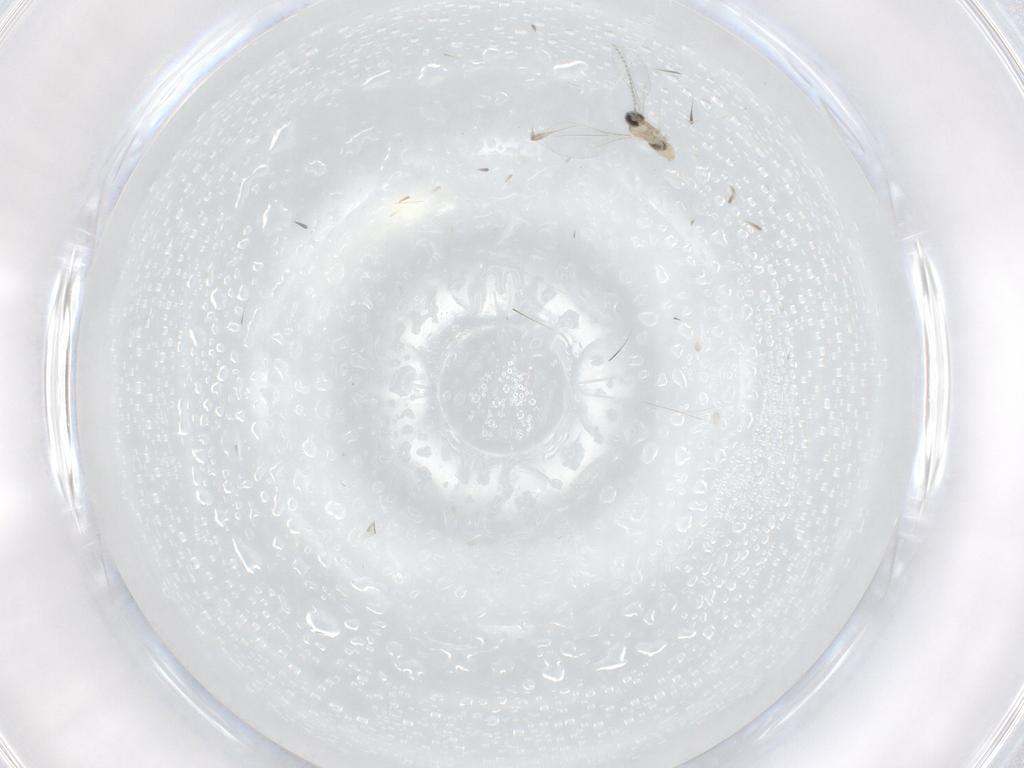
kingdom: Animalia
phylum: Arthropoda
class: Insecta
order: Diptera
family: Cecidomyiidae
